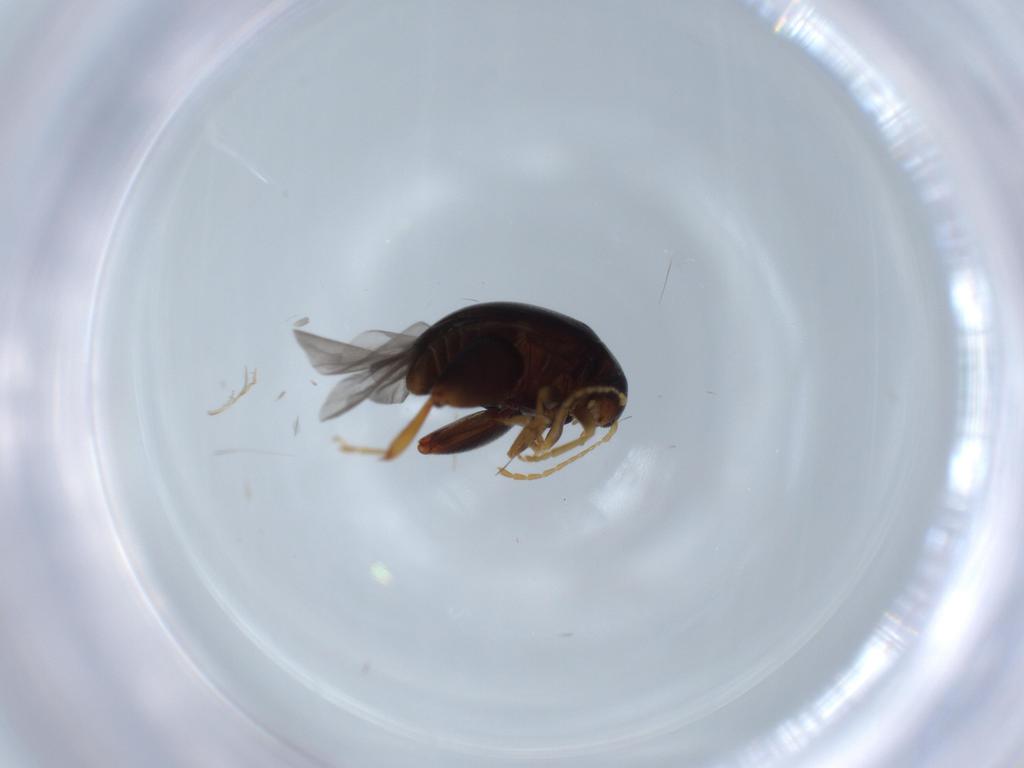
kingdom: Animalia
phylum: Arthropoda
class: Insecta
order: Coleoptera
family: Chrysomelidae
